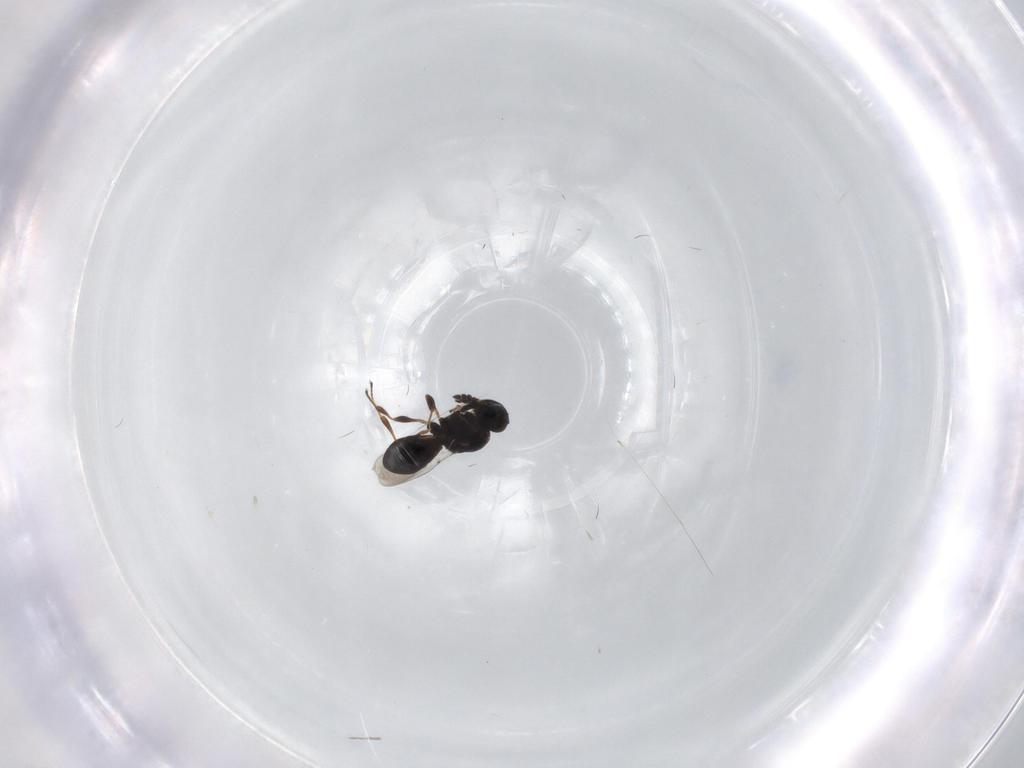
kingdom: Animalia
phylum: Arthropoda
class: Insecta
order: Hymenoptera
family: Platygastridae
